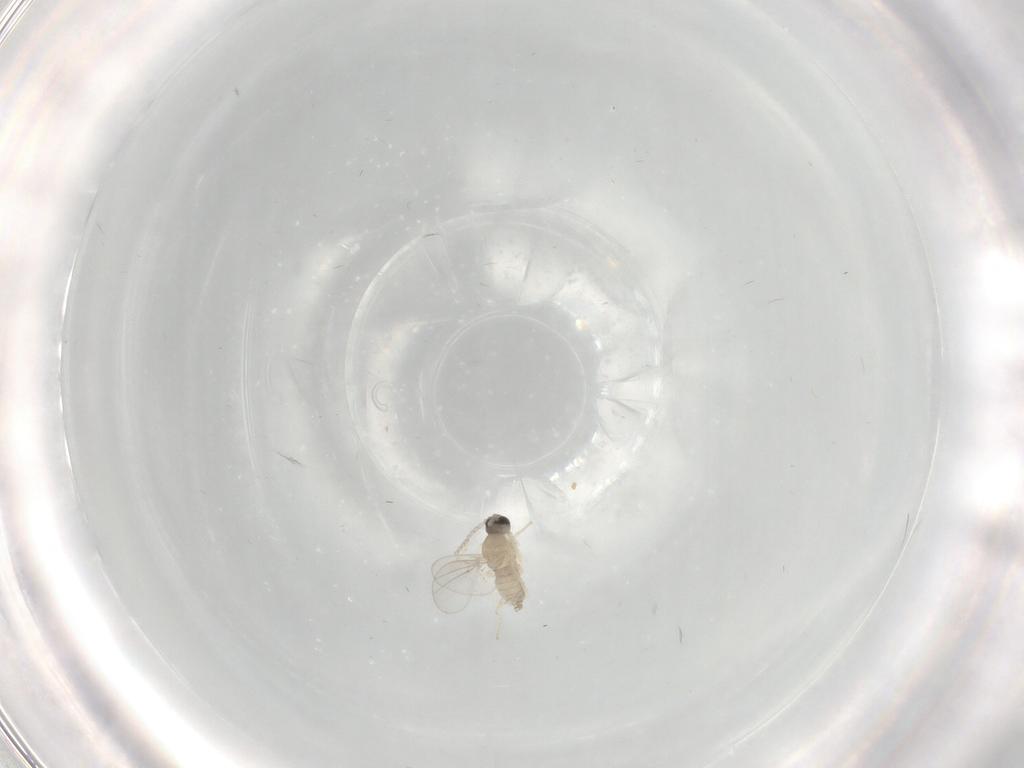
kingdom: Animalia
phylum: Arthropoda
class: Insecta
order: Diptera
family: Cecidomyiidae
